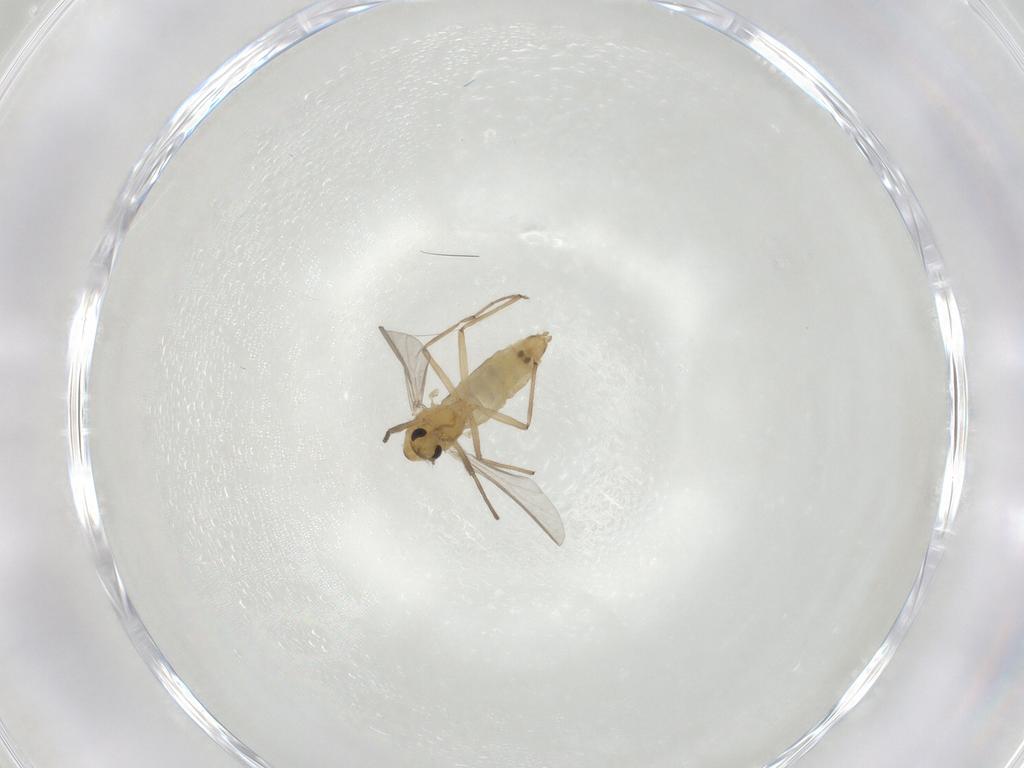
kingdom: Animalia
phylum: Arthropoda
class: Insecta
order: Diptera
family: Chironomidae
